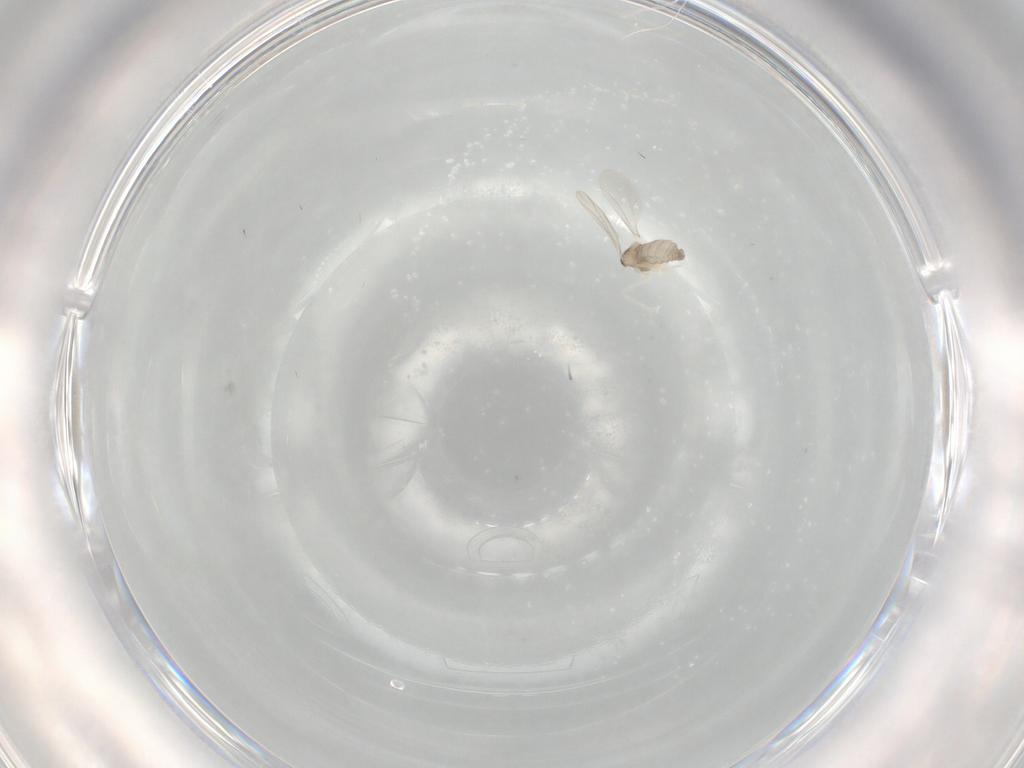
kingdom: Animalia
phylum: Arthropoda
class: Insecta
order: Diptera
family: Cecidomyiidae
